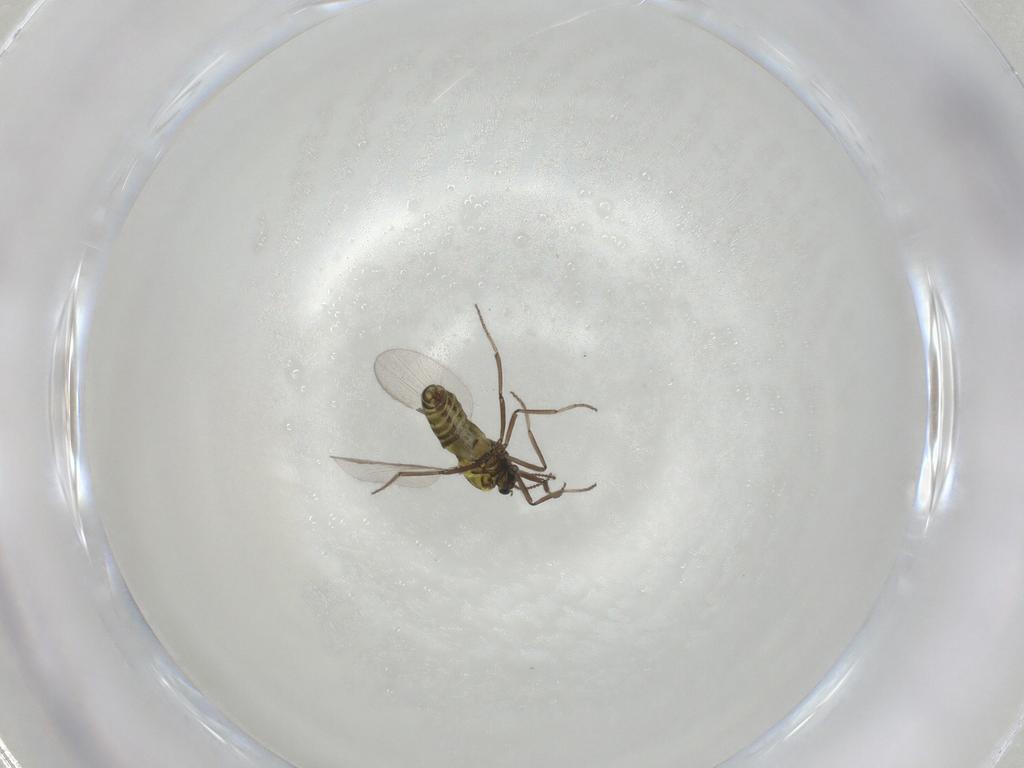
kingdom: Animalia
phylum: Arthropoda
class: Insecta
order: Diptera
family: Ceratopogonidae
